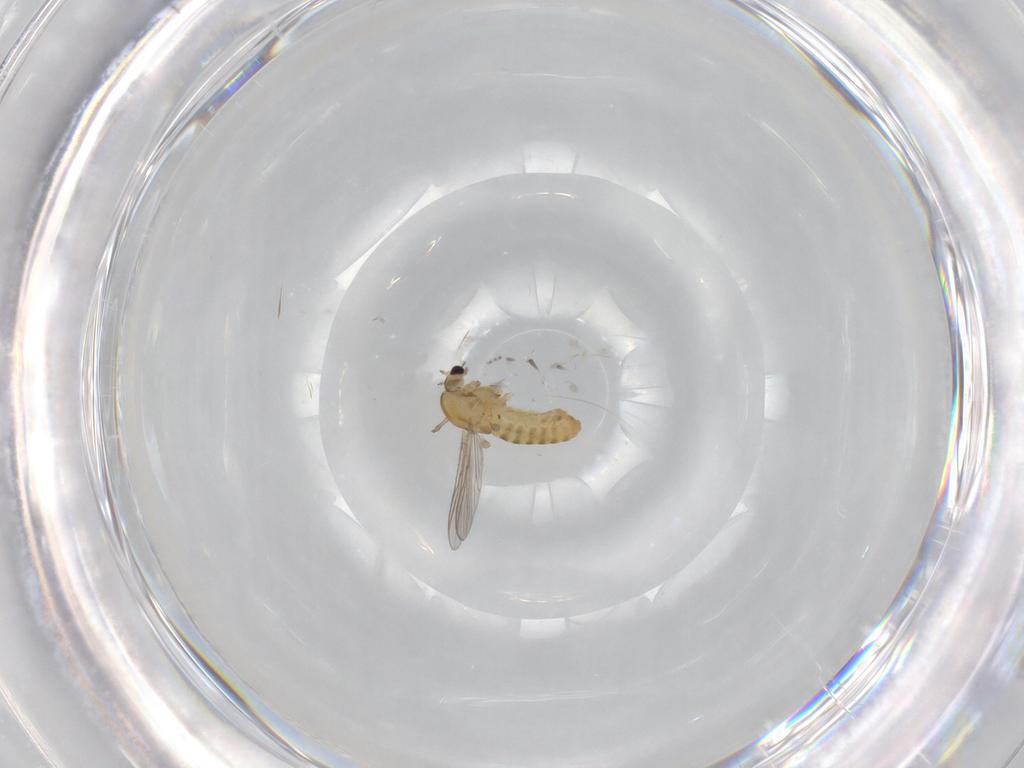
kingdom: Animalia
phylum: Arthropoda
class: Insecta
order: Diptera
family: Chironomidae
